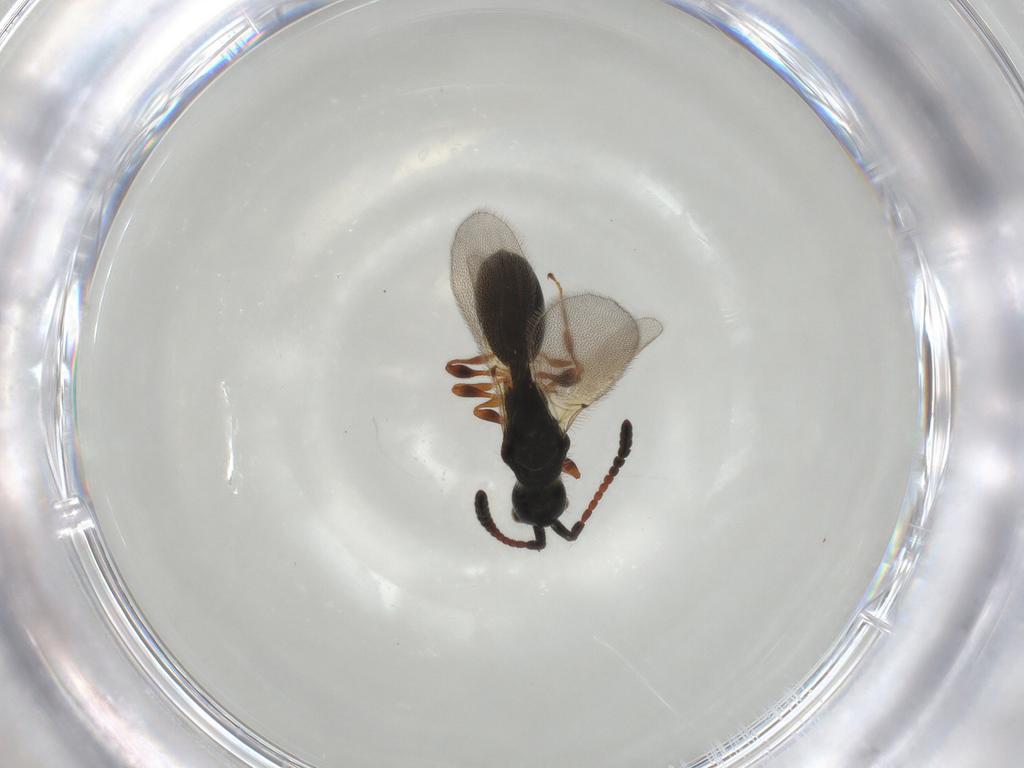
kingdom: Animalia
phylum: Arthropoda
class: Insecta
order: Hymenoptera
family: Diapriidae
